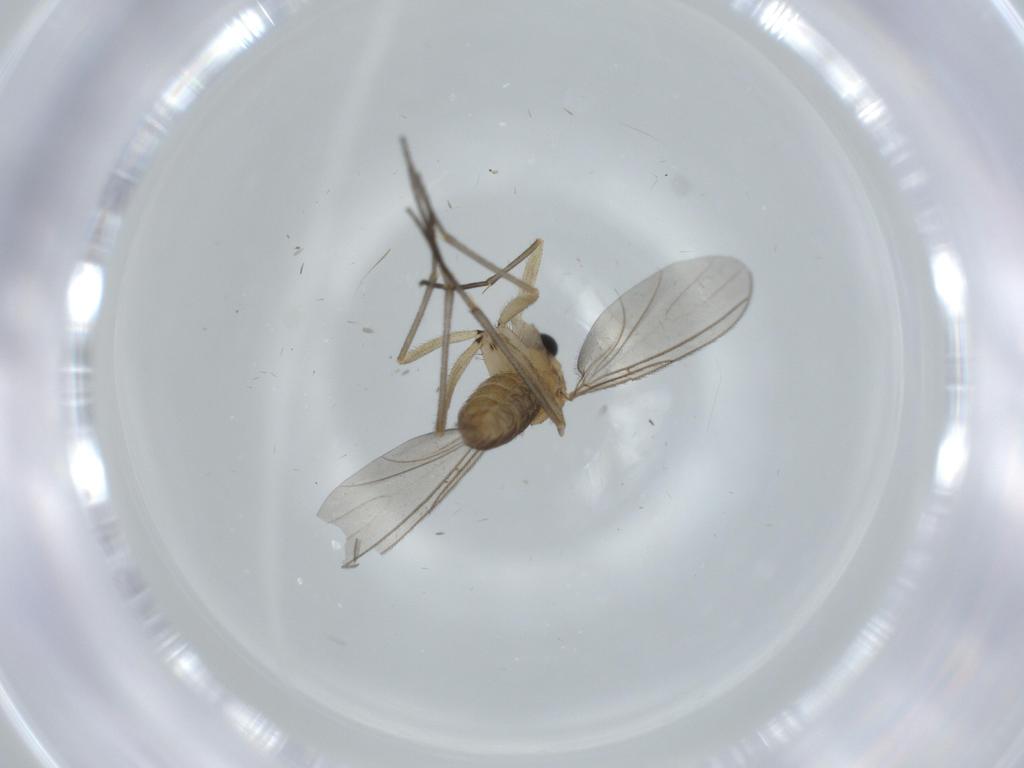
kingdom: Animalia
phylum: Arthropoda
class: Insecta
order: Diptera
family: Sciaridae
